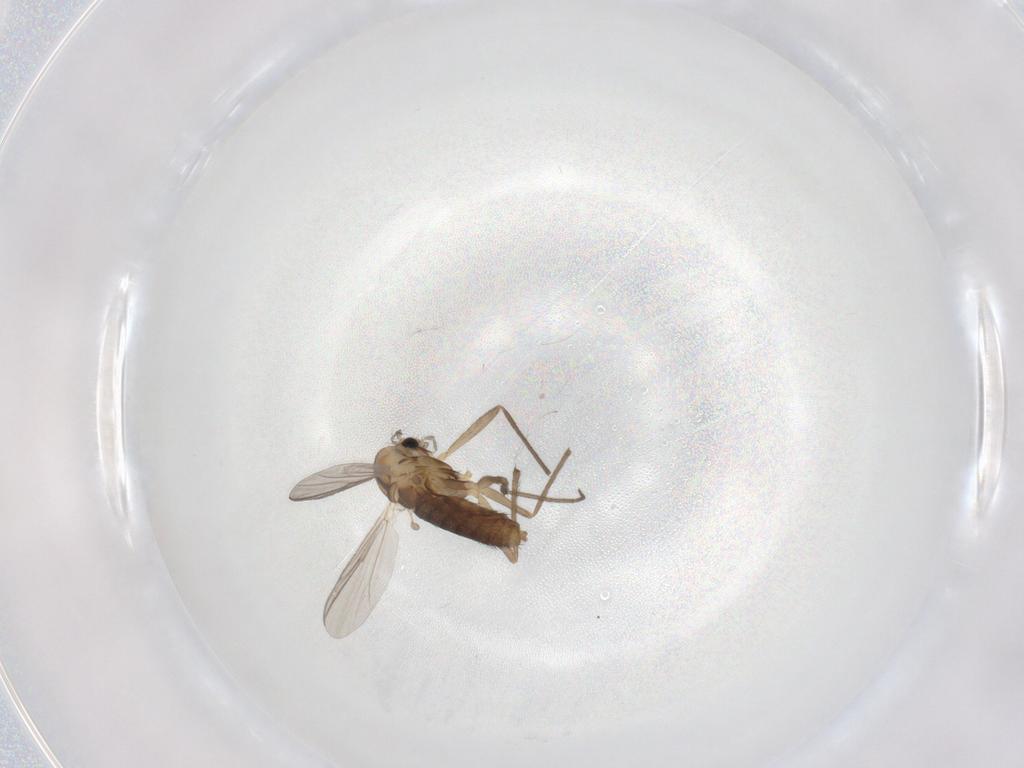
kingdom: Animalia
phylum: Arthropoda
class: Insecta
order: Diptera
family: Chironomidae
